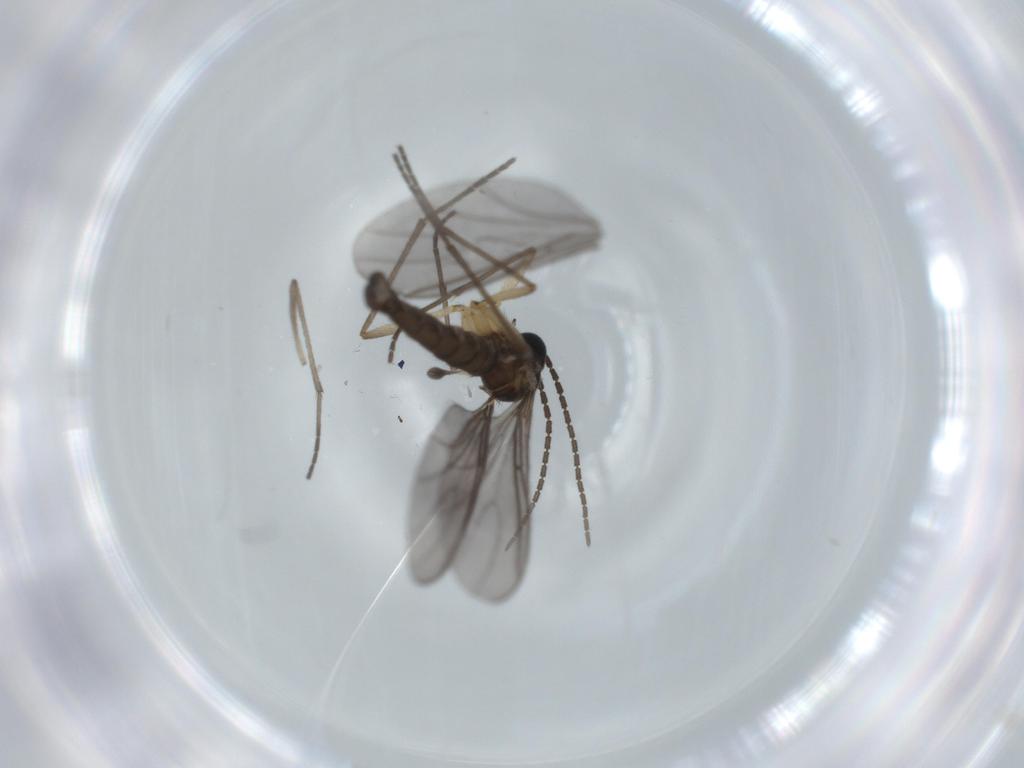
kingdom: Animalia
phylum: Arthropoda
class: Insecta
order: Diptera
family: Sciaridae
